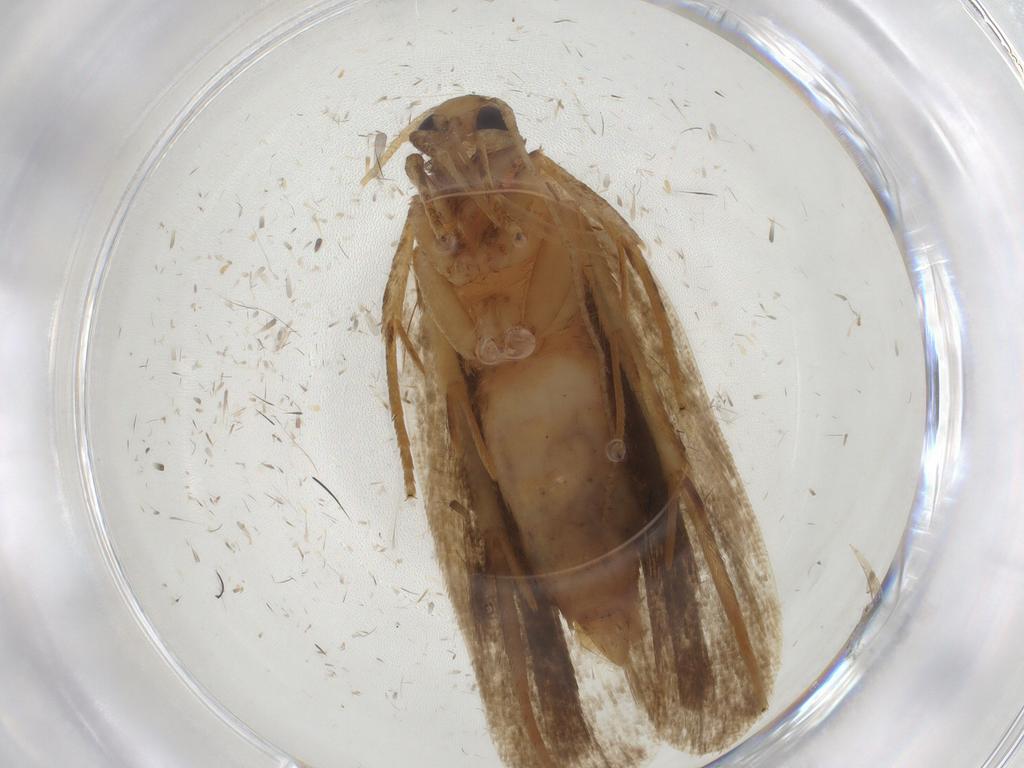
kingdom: Animalia
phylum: Arthropoda
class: Insecta
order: Lepidoptera
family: Autostichidae
